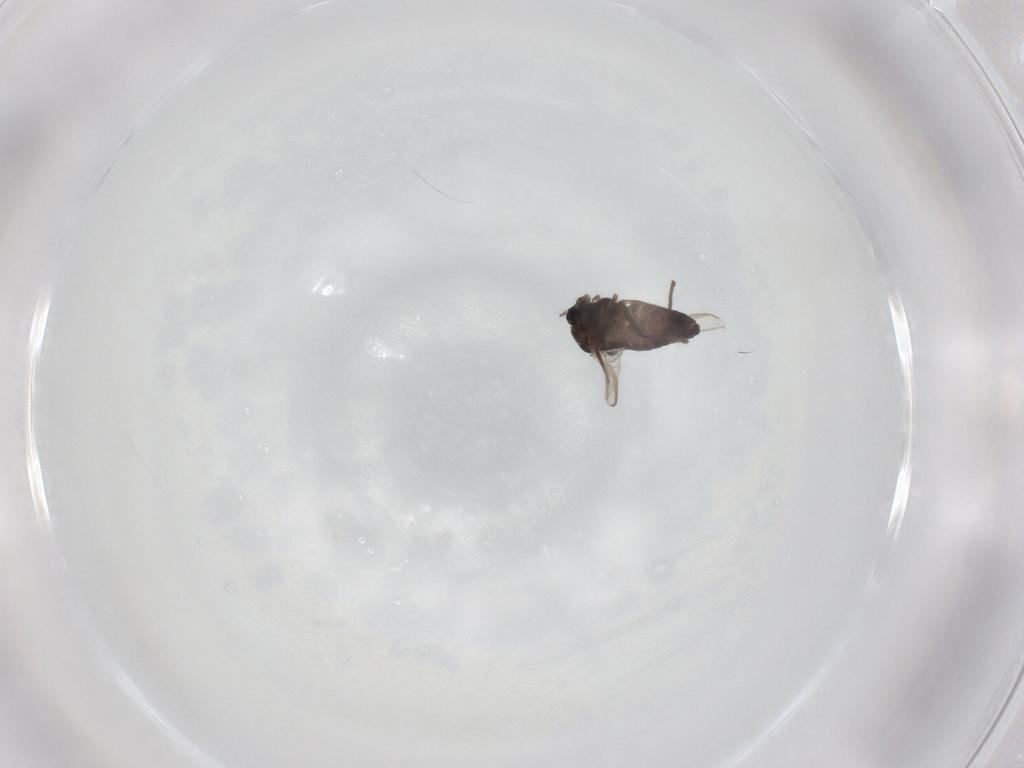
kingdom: Animalia
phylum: Arthropoda
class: Insecta
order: Diptera
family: Chironomidae
